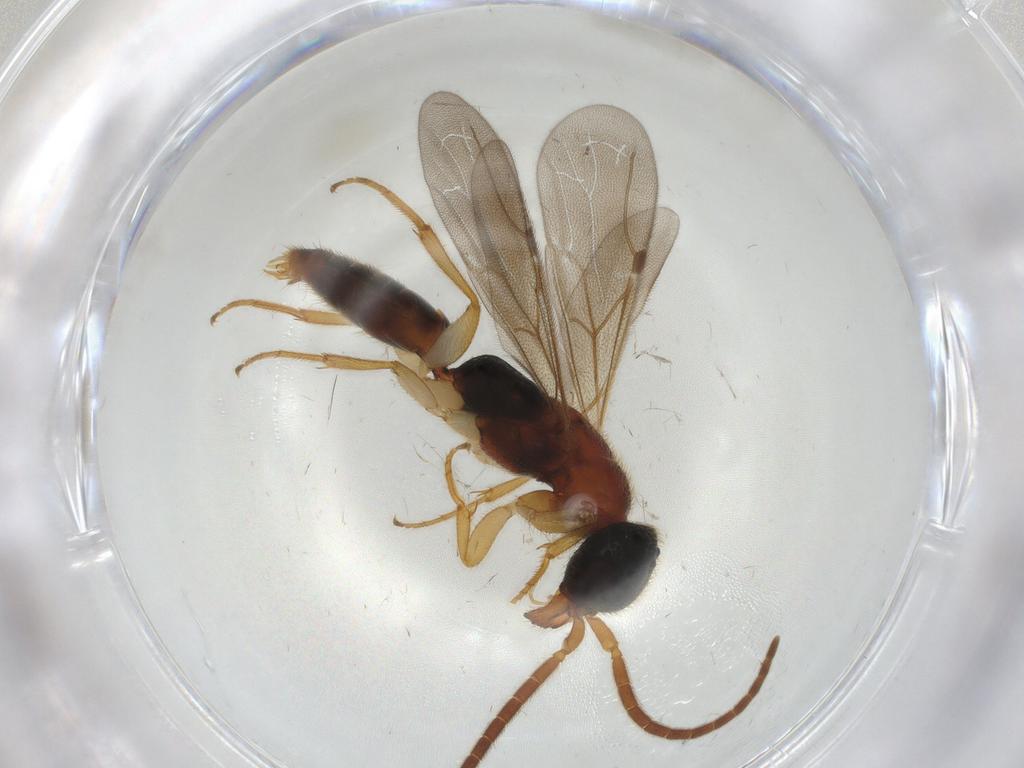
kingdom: Animalia
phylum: Arthropoda
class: Insecta
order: Hymenoptera
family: Bethylidae
